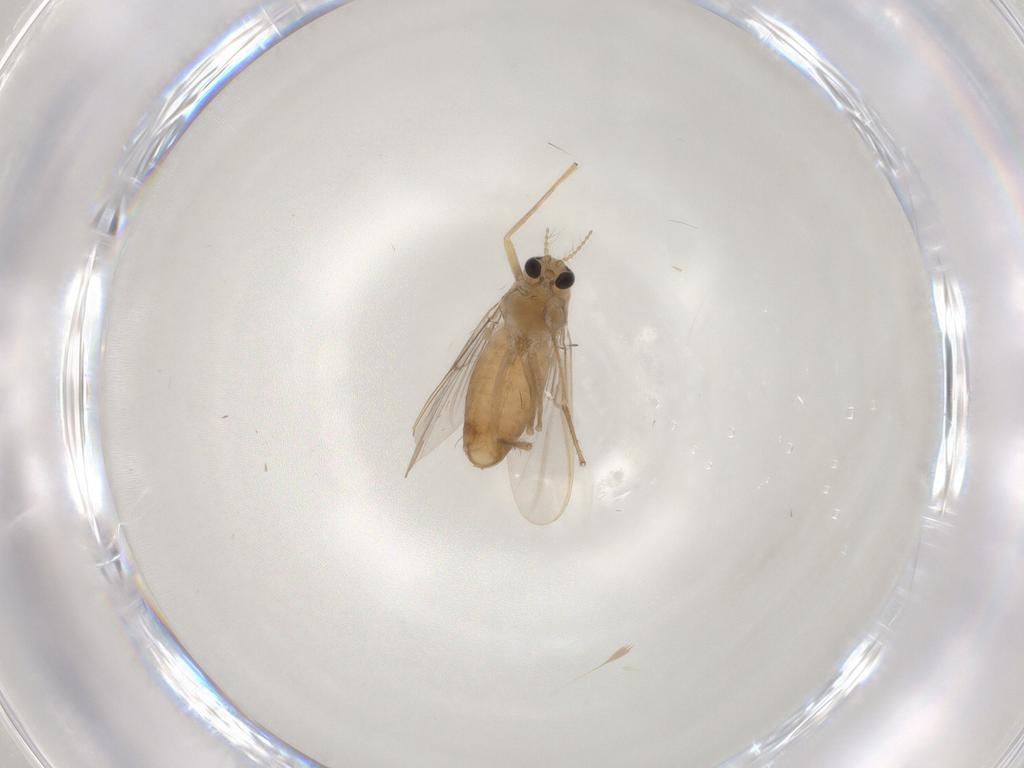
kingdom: Animalia
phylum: Arthropoda
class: Insecta
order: Diptera
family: Chironomidae
